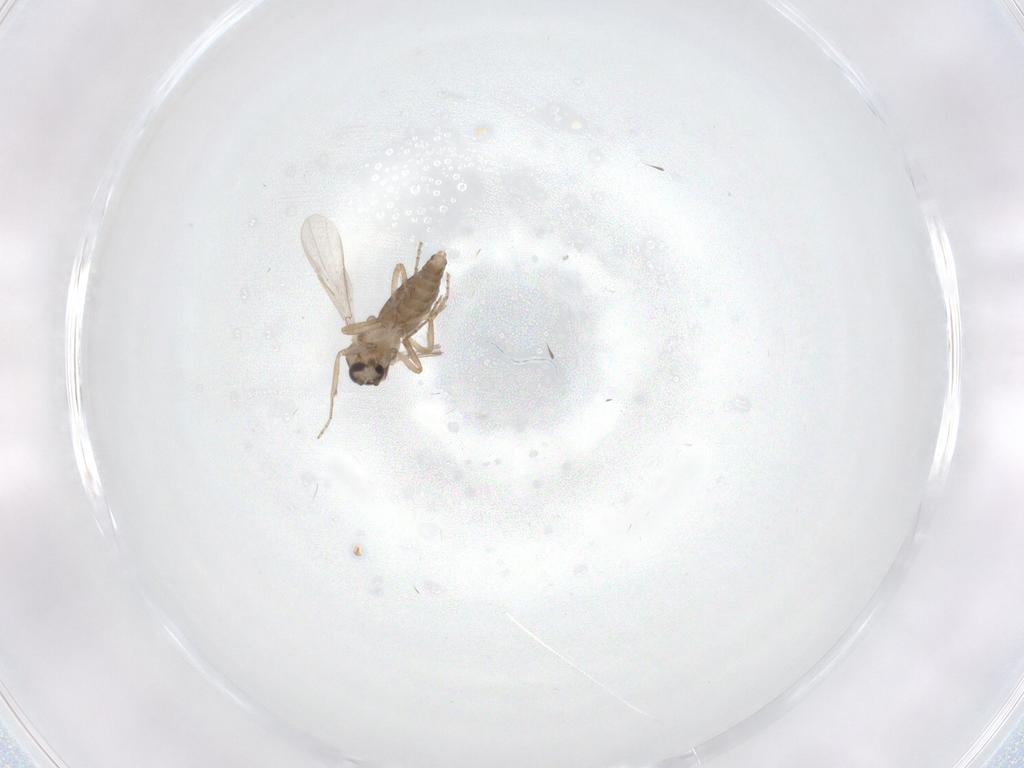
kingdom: Animalia
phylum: Arthropoda
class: Insecta
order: Diptera
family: Ceratopogonidae
